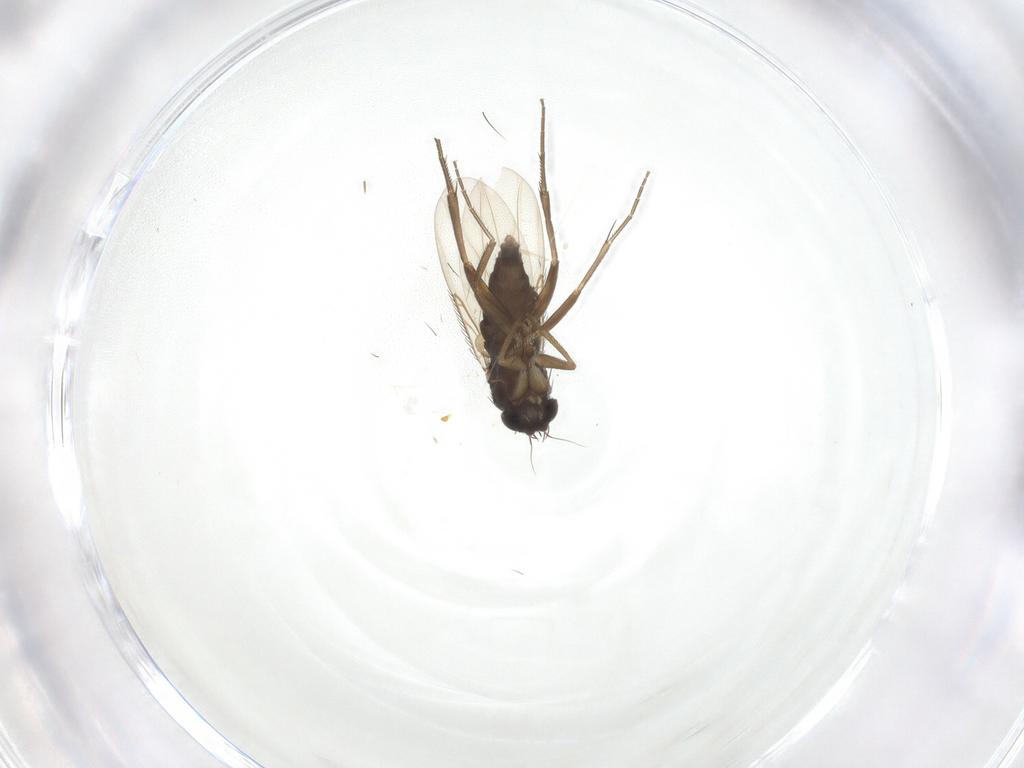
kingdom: Animalia
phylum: Arthropoda
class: Insecta
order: Diptera
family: Phoridae
